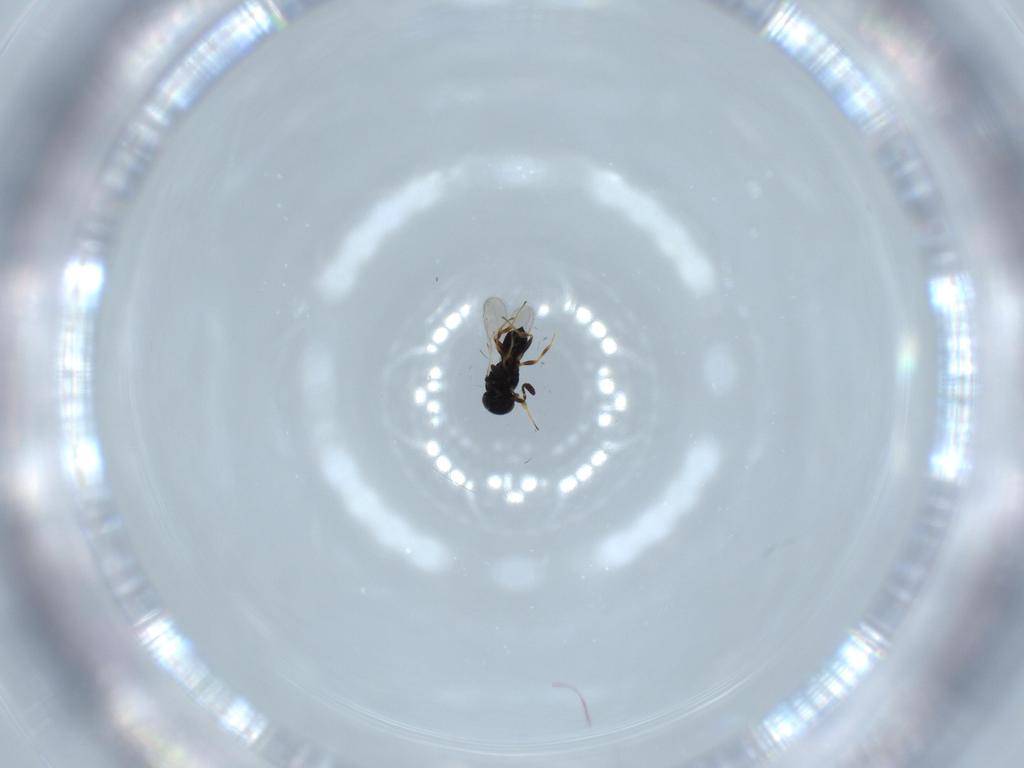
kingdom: Animalia
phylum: Arthropoda
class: Insecta
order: Hymenoptera
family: Scelionidae
